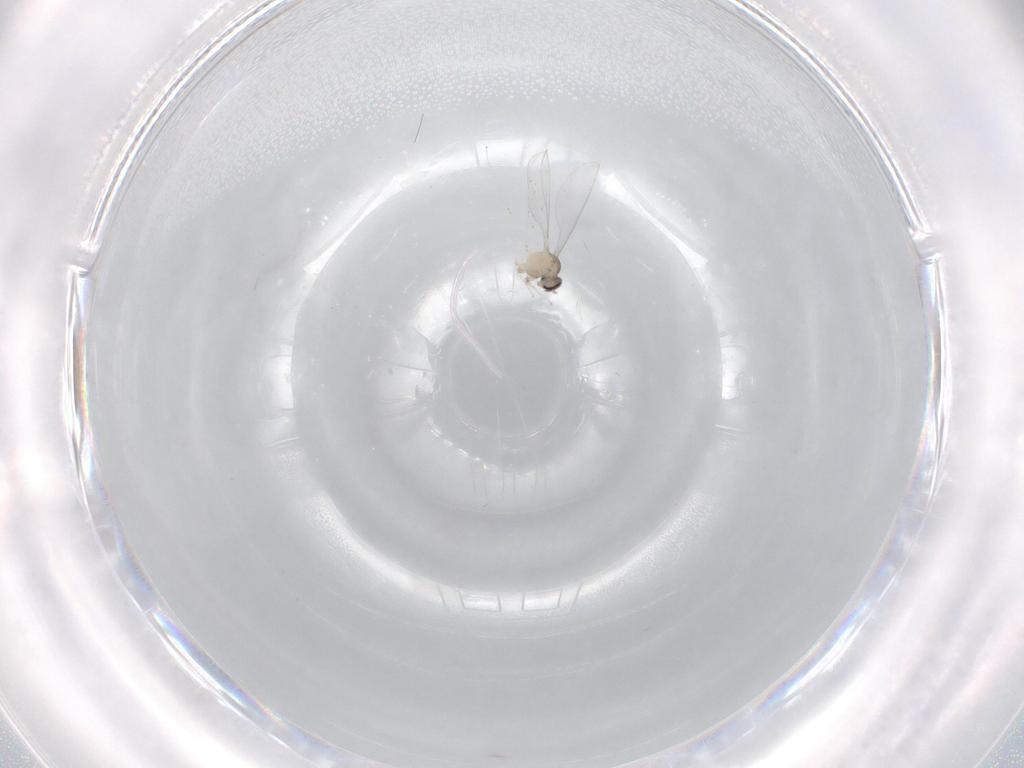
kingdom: Animalia
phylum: Arthropoda
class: Insecta
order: Diptera
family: Cecidomyiidae
